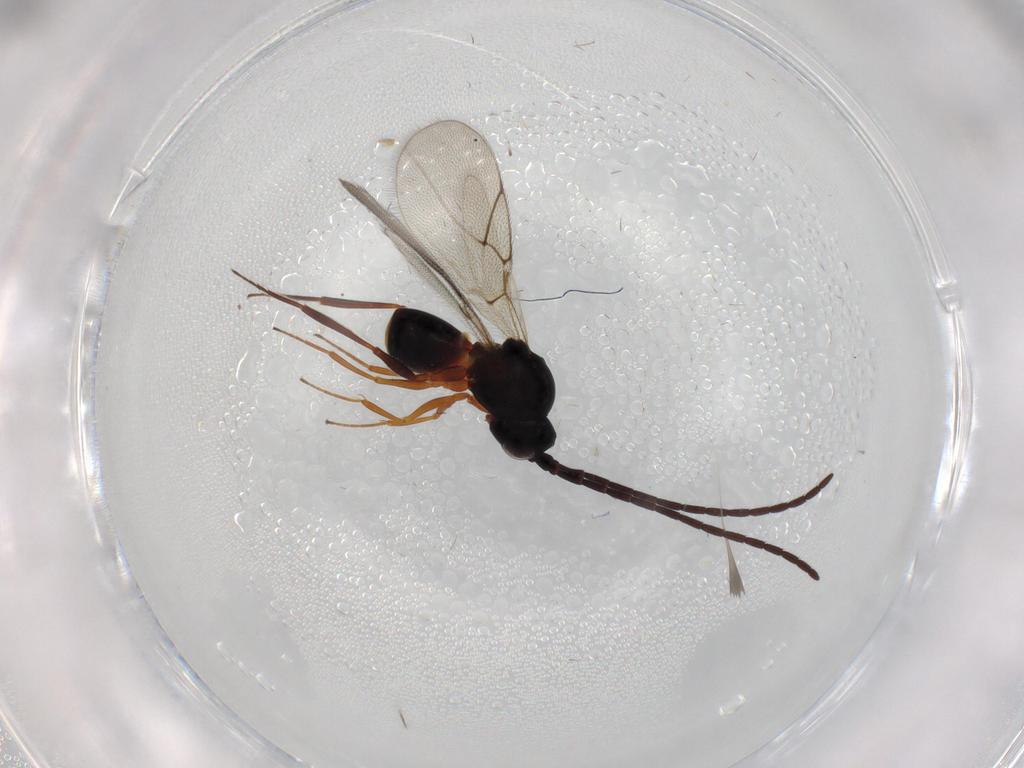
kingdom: Animalia
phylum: Arthropoda
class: Insecta
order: Hymenoptera
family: Figitidae
